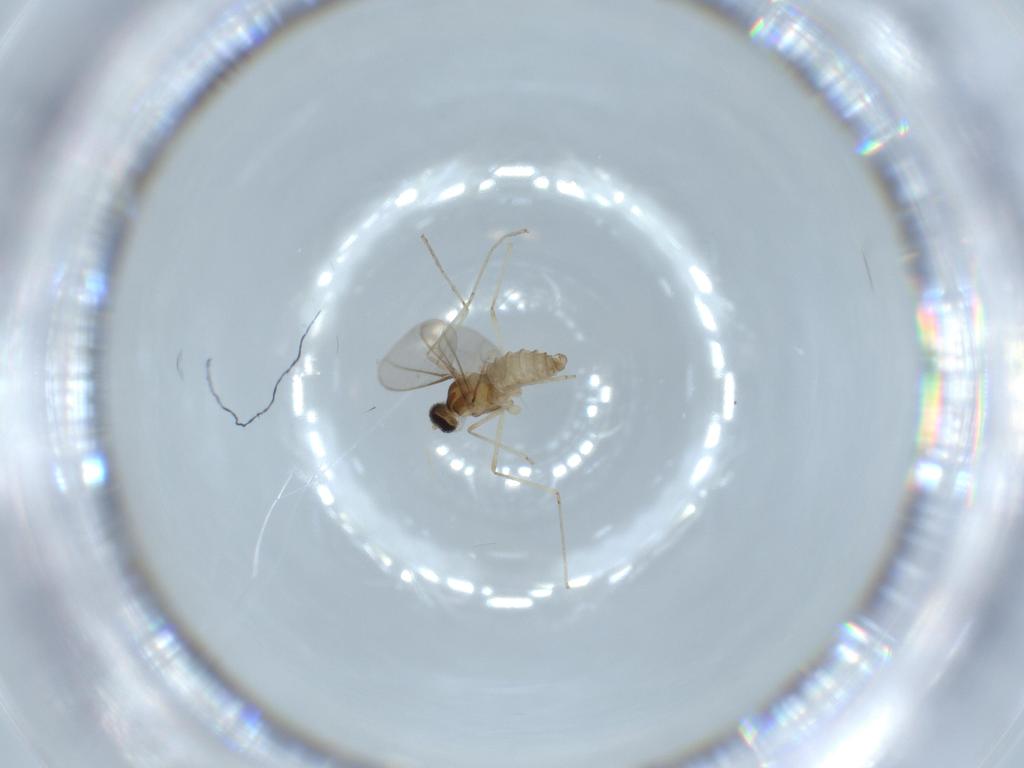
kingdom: Animalia
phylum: Arthropoda
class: Insecta
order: Diptera
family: Cecidomyiidae
